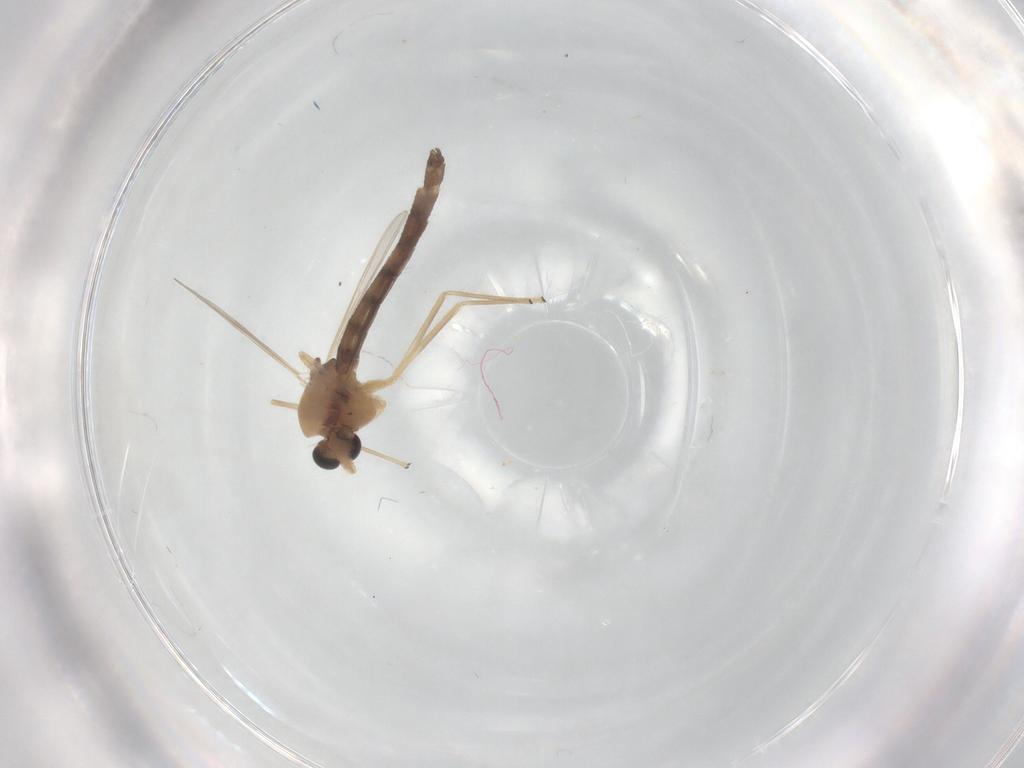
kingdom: Animalia
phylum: Arthropoda
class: Insecta
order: Diptera
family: Chironomidae
